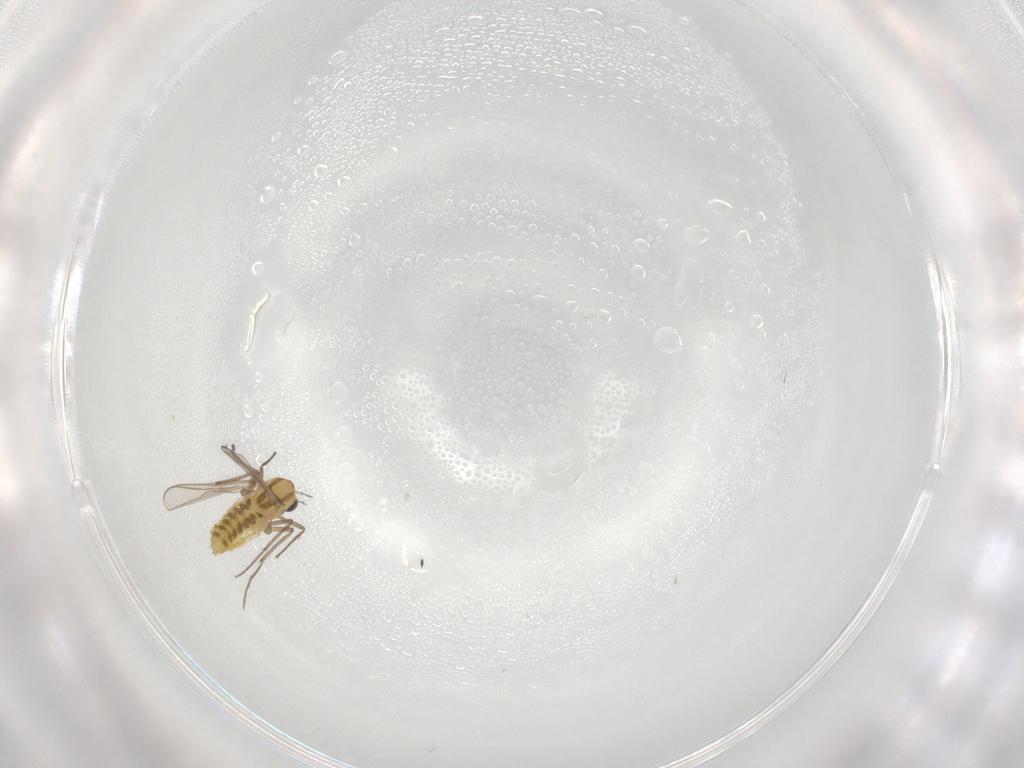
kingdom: Animalia
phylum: Arthropoda
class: Insecta
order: Diptera
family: Chironomidae
